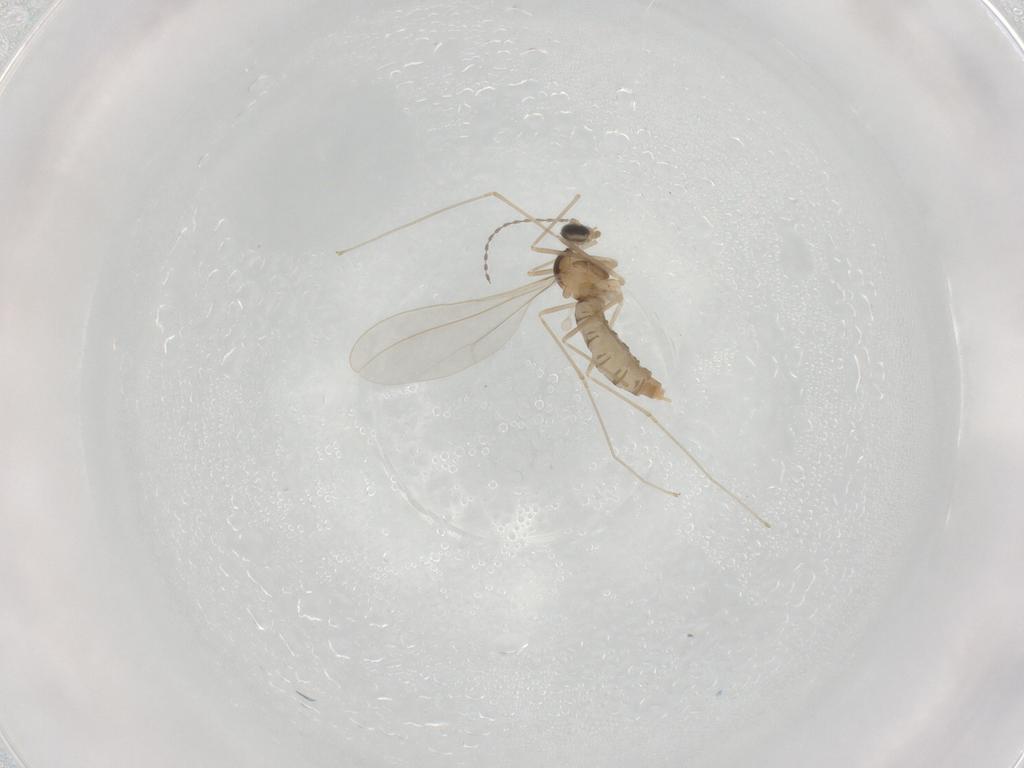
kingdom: Animalia
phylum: Arthropoda
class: Insecta
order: Diptera
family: Cecidomyiidae
